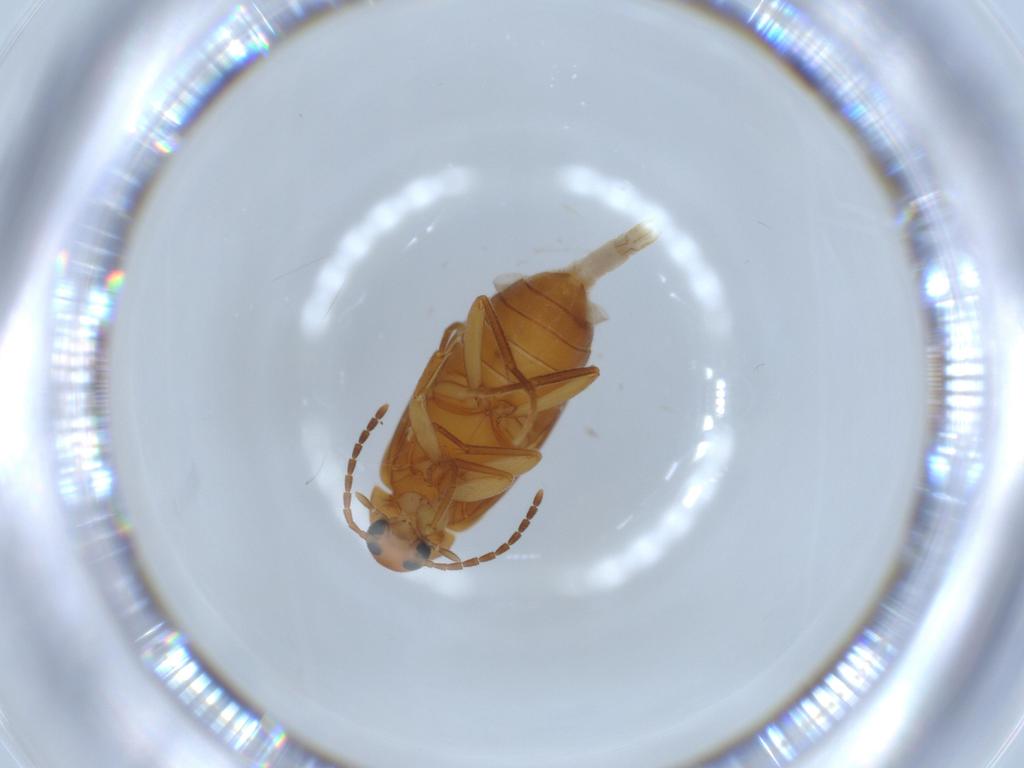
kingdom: Animalia
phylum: Arthropoda
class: Insecta
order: Coleoptera
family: Scraptiidae
